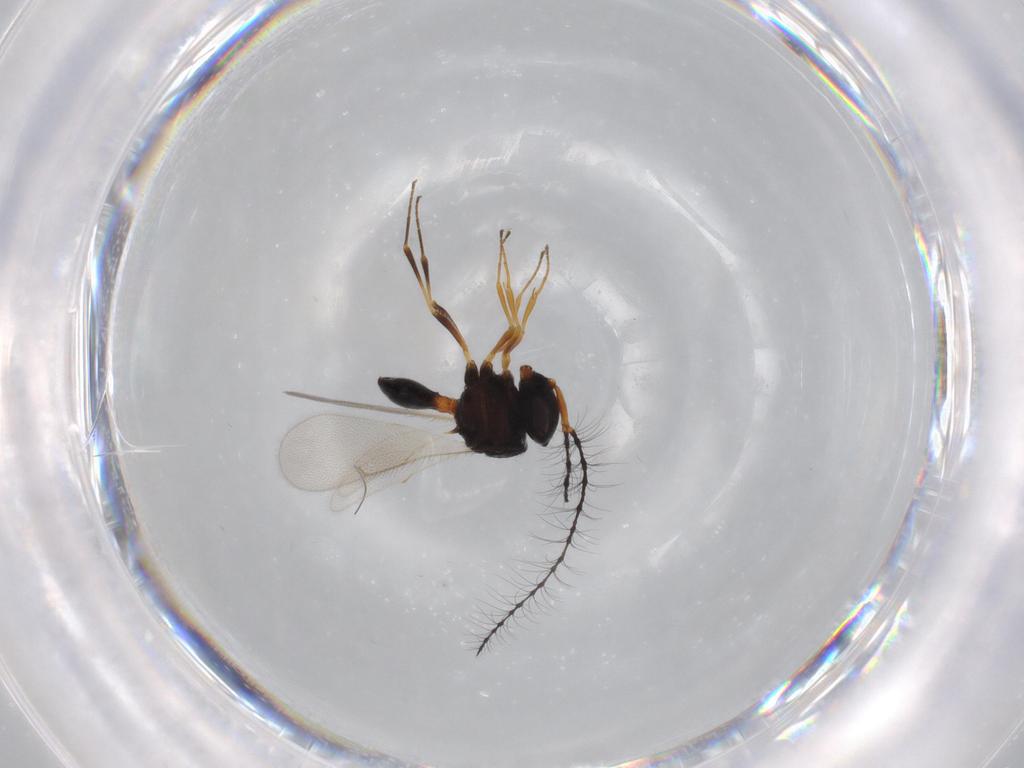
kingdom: Animalia
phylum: Arthropoda
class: Insecta
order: Hymenoptera
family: Scelionidae
